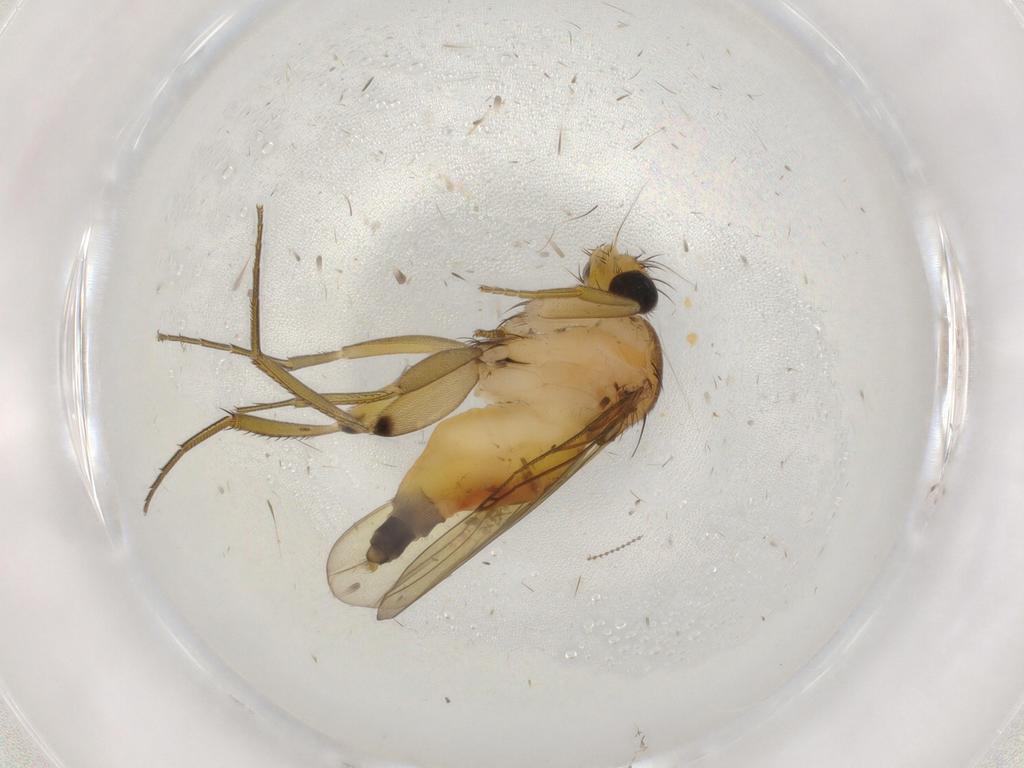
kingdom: Animalia
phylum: Arthropoda
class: Insecta
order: Diptera
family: Phoridae
